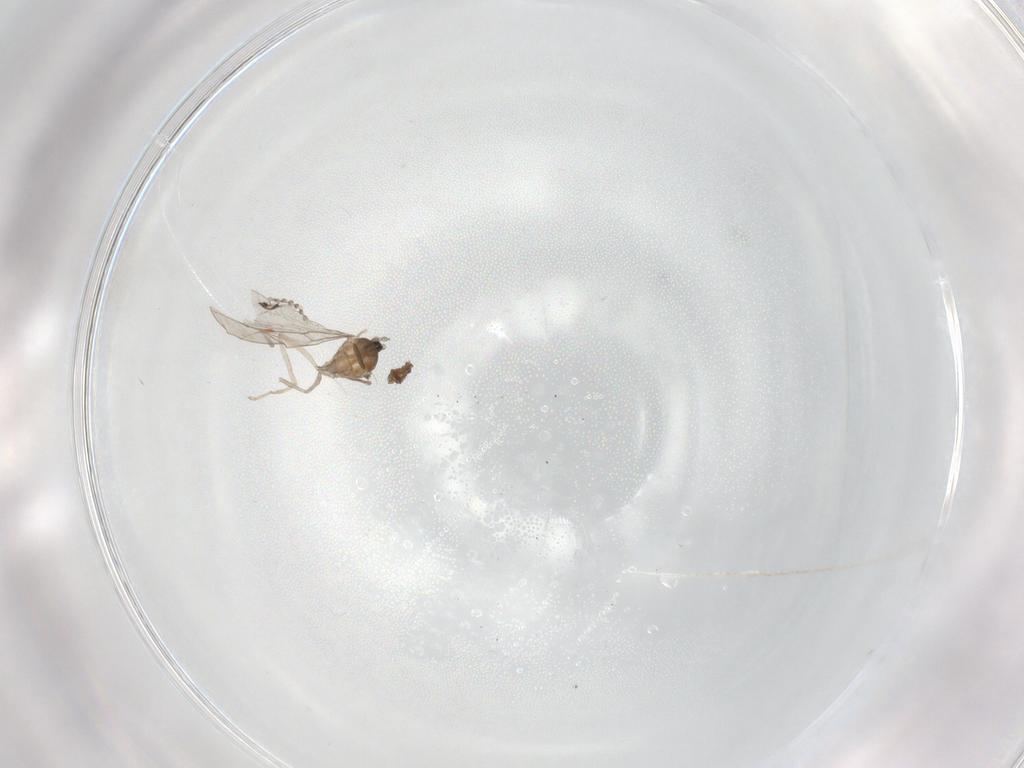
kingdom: Animalia
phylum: Arthropoda
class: Insecta
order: Diptera
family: Cecidomyiidae
